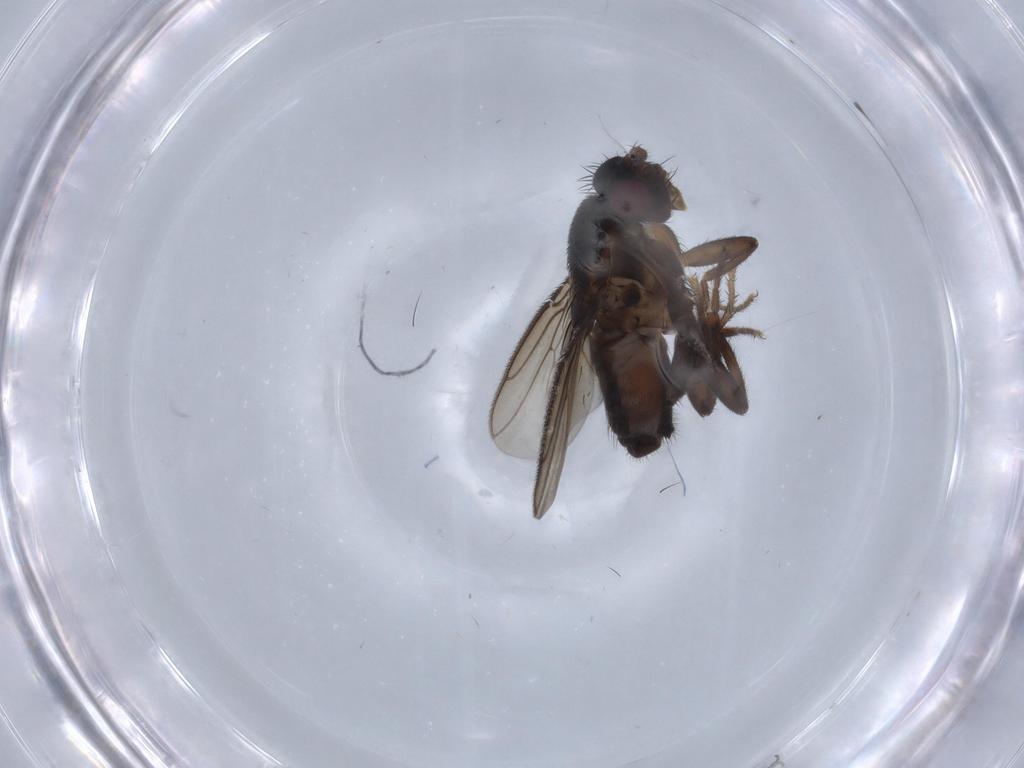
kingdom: Animalia
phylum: Arthropoda
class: Insecta
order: Diptera
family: Sphaeroceridae
